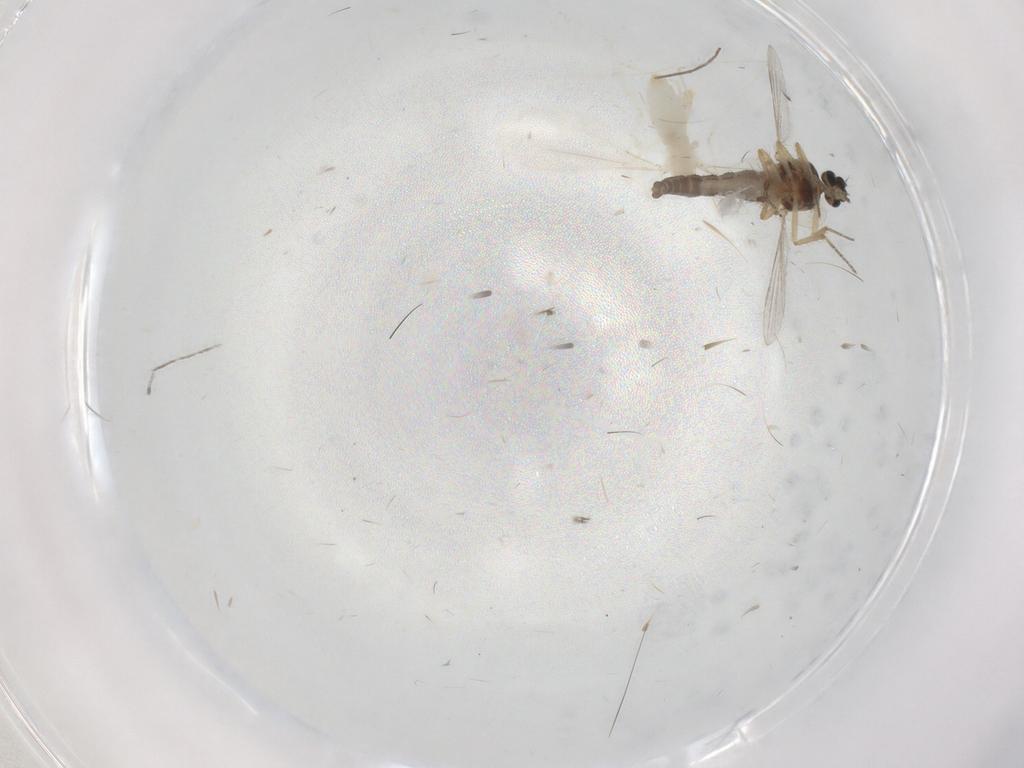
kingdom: Animalia
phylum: Arthropoda
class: Insecta
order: Diptera
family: Cecidomyiidae
